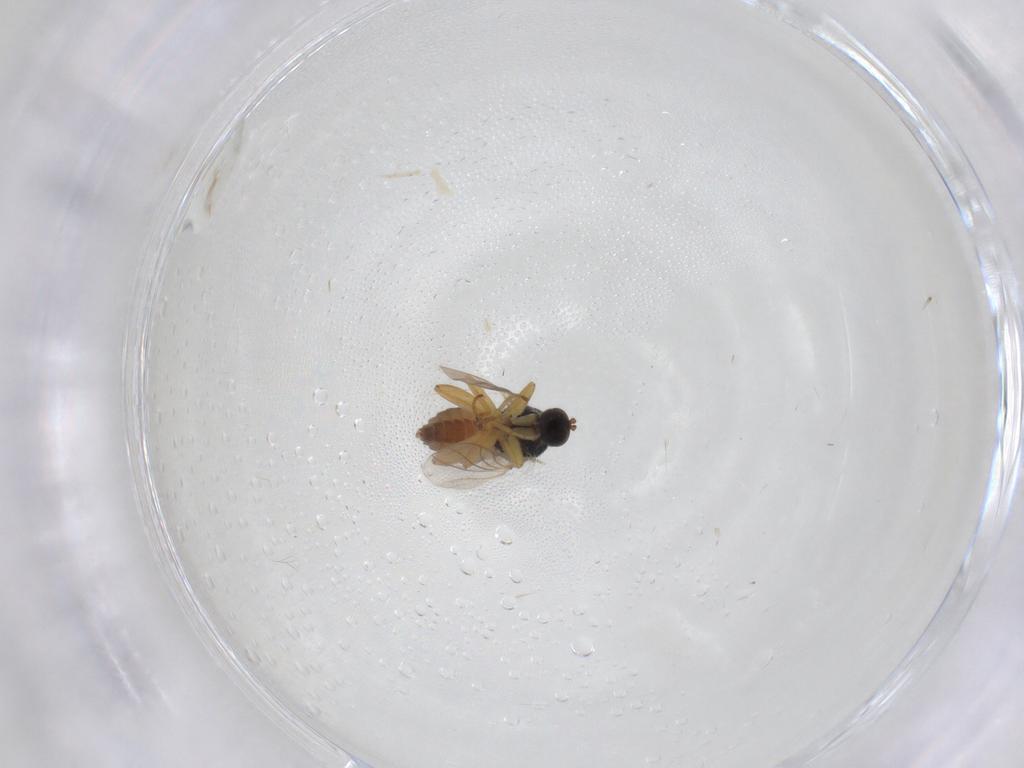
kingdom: Animalia
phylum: Arthropoda
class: Insecta
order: Diptera
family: Hybotidae
